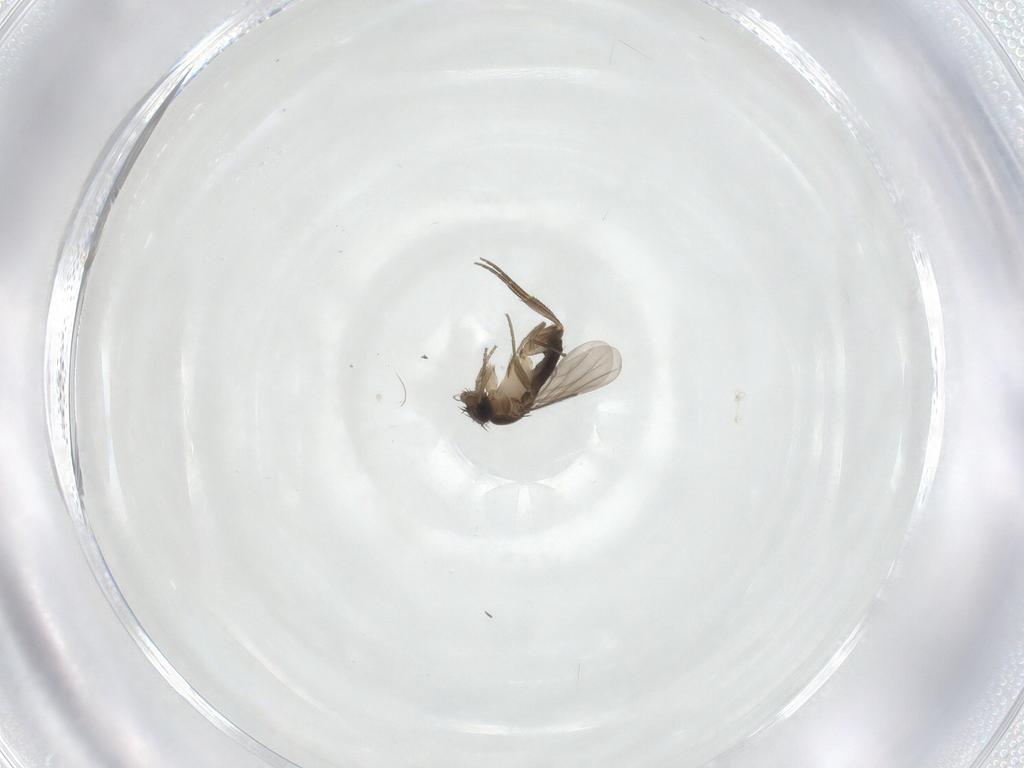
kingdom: Animalia
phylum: Arthropoda
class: Insecta
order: Diptera
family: Phoridae
